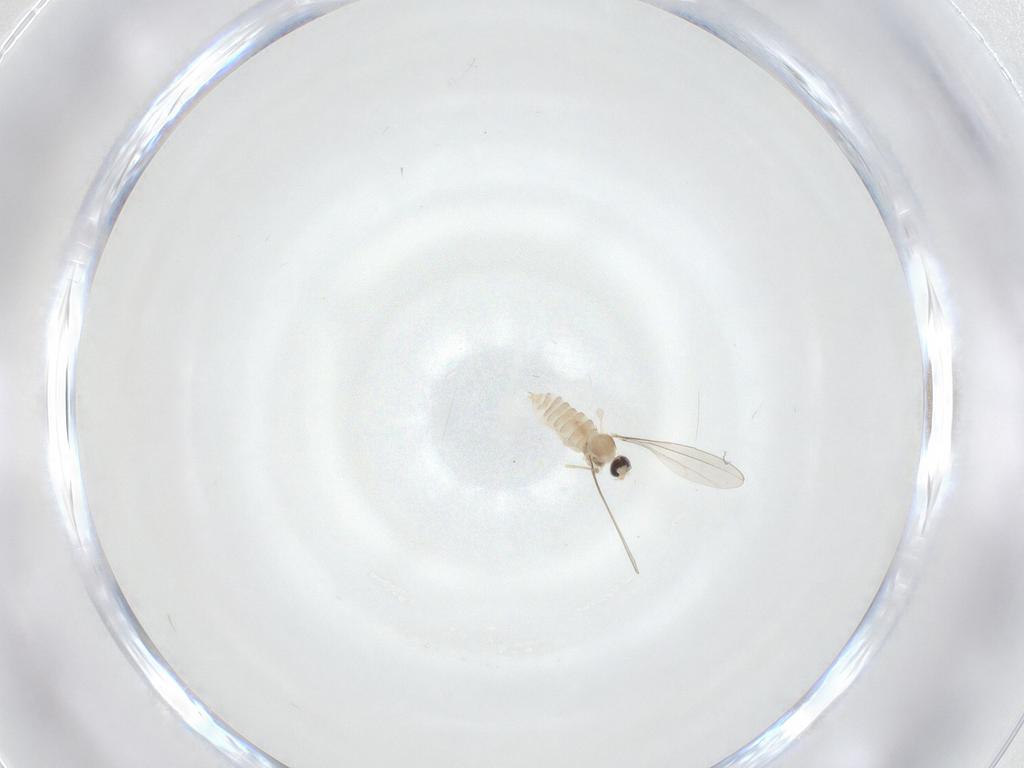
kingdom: Animalia
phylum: Arthropoda
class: Insecta
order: Diptera
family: Cecidomyiidae
